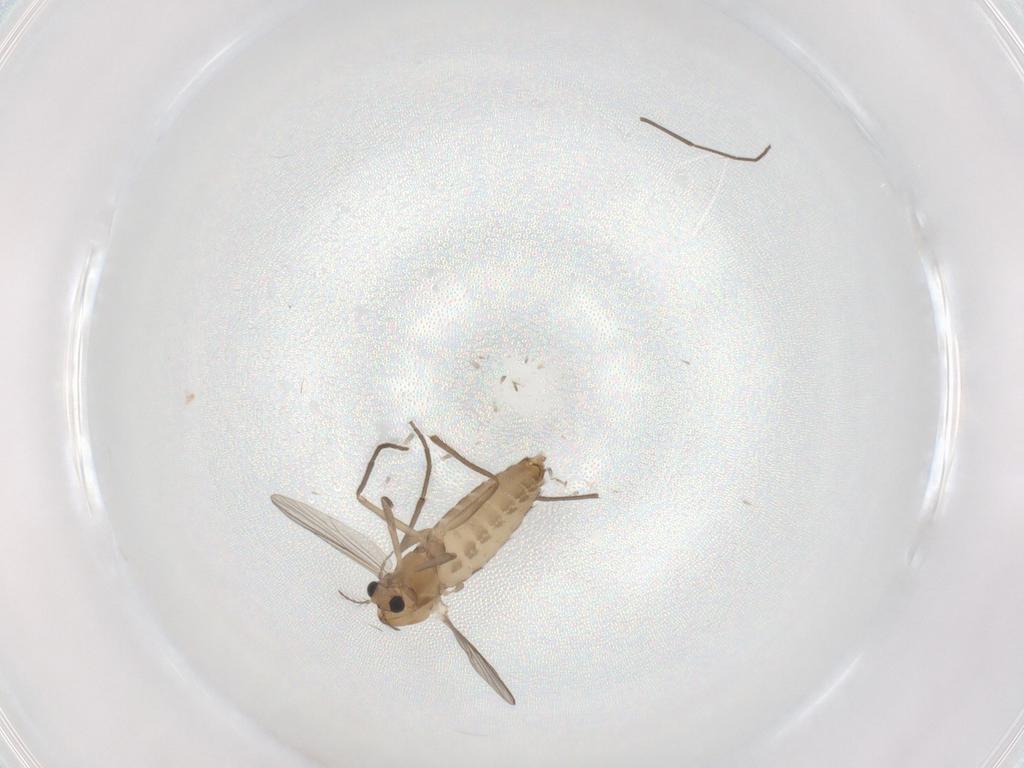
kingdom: Animalia
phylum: Arthropoda
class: Insecta
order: Diptera
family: Chironomidae
